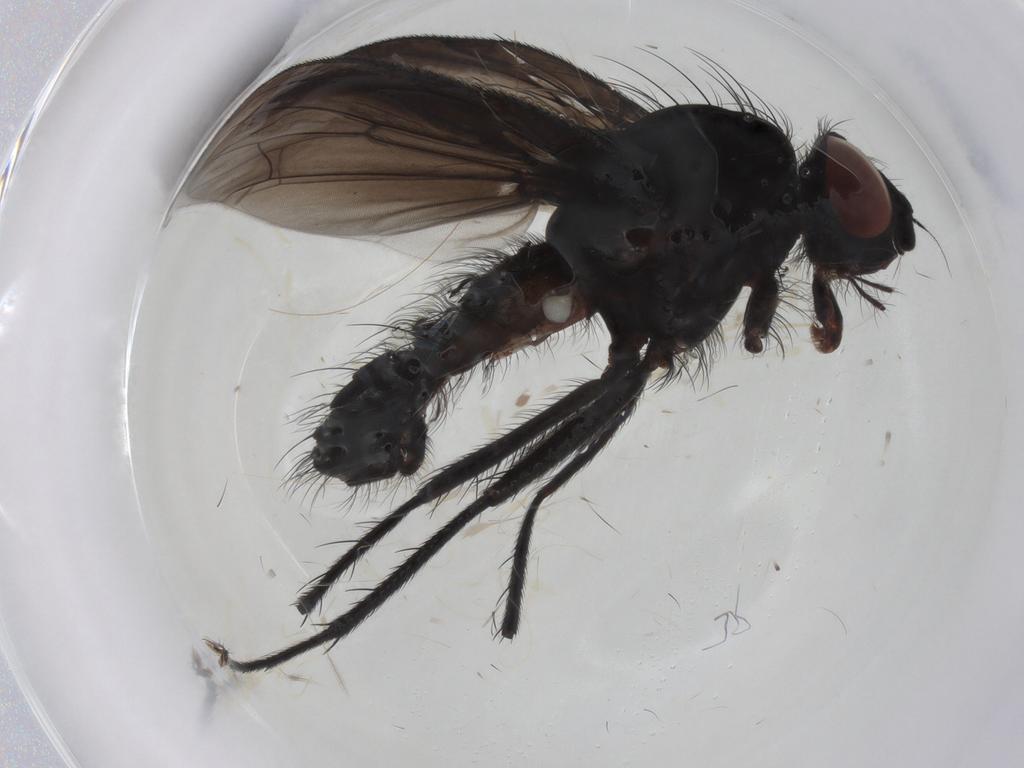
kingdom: Animalia
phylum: Arthropoda
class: Insecta
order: Diptera
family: Anthomyiidae
